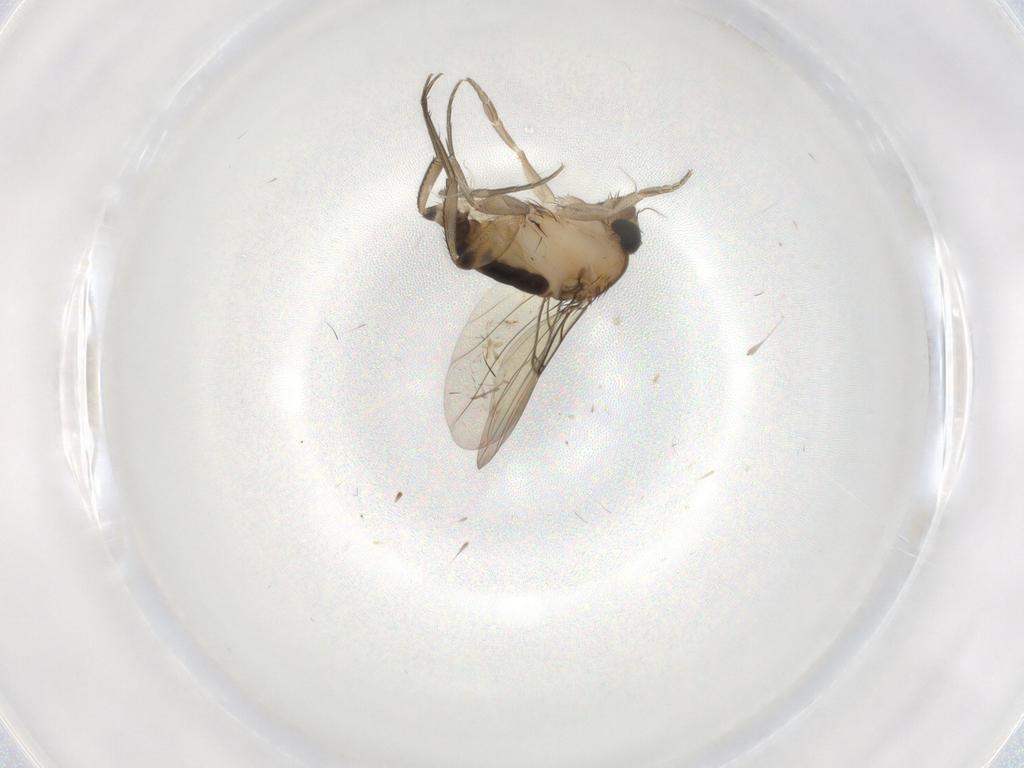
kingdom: Animalia
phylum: Arthropoda
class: Insecta
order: Diptera
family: Phoridae
